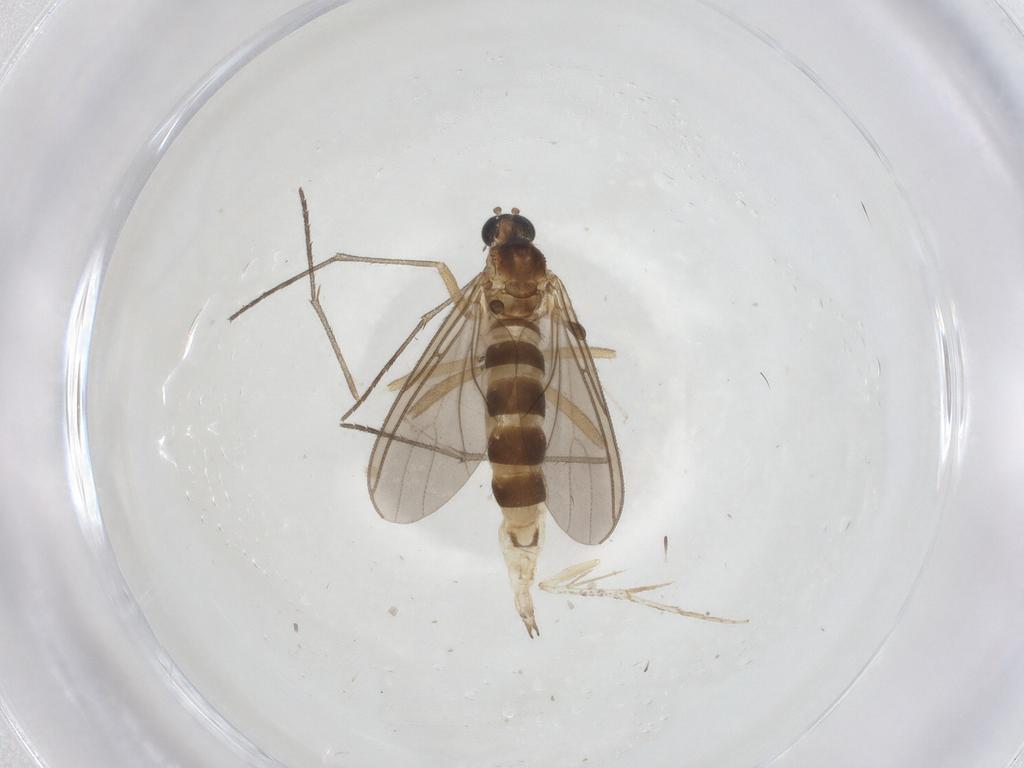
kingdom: Animalia
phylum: Arthropoda
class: Insecta
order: Diptera
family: Sciaridae
